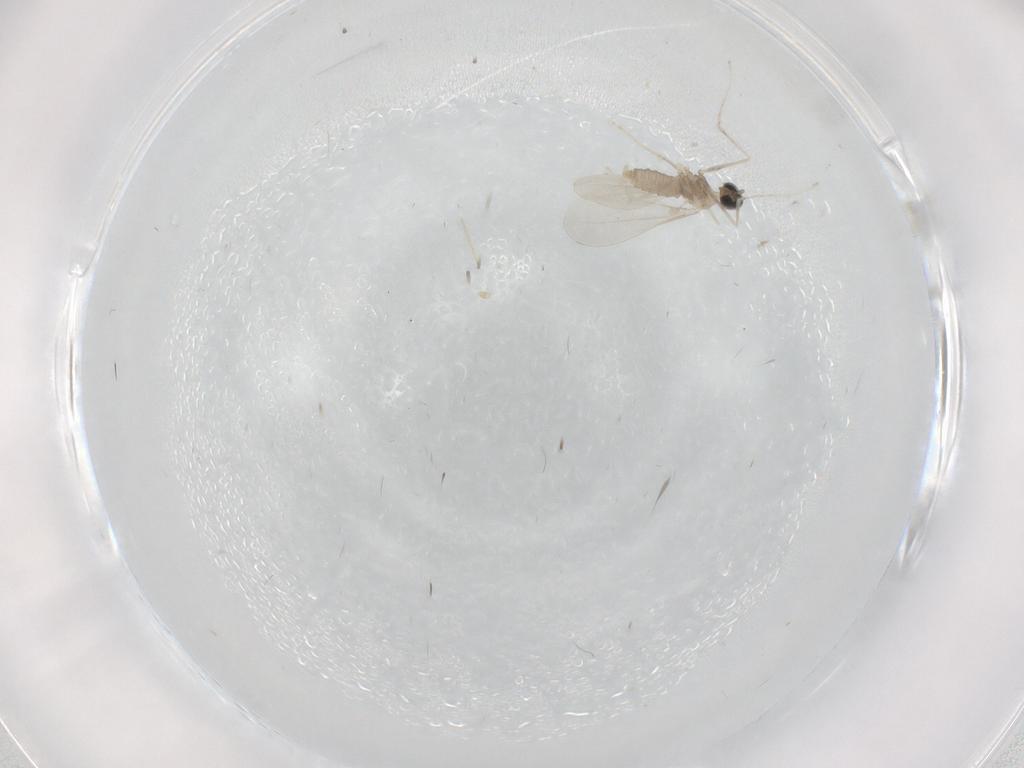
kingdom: Animalia
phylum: Arthropoda
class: Insecta
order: Diptera
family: Cecidomyiidae
